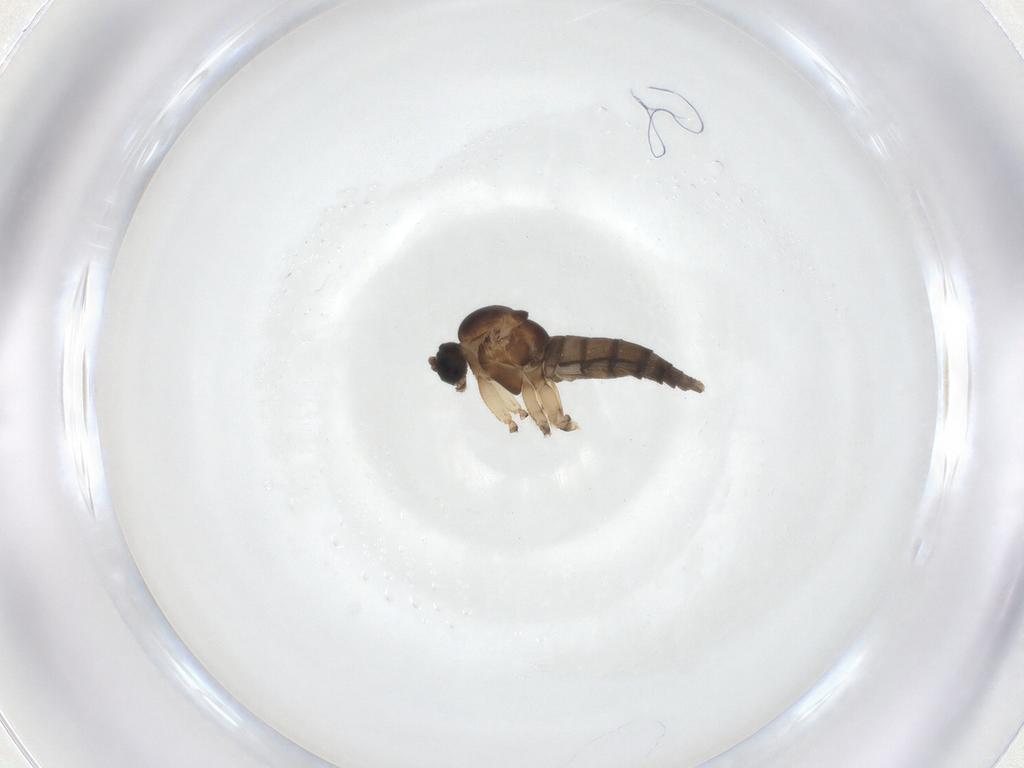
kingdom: Animalia
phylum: Arthropoda
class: Insecta
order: Diptera
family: Sciaridae
